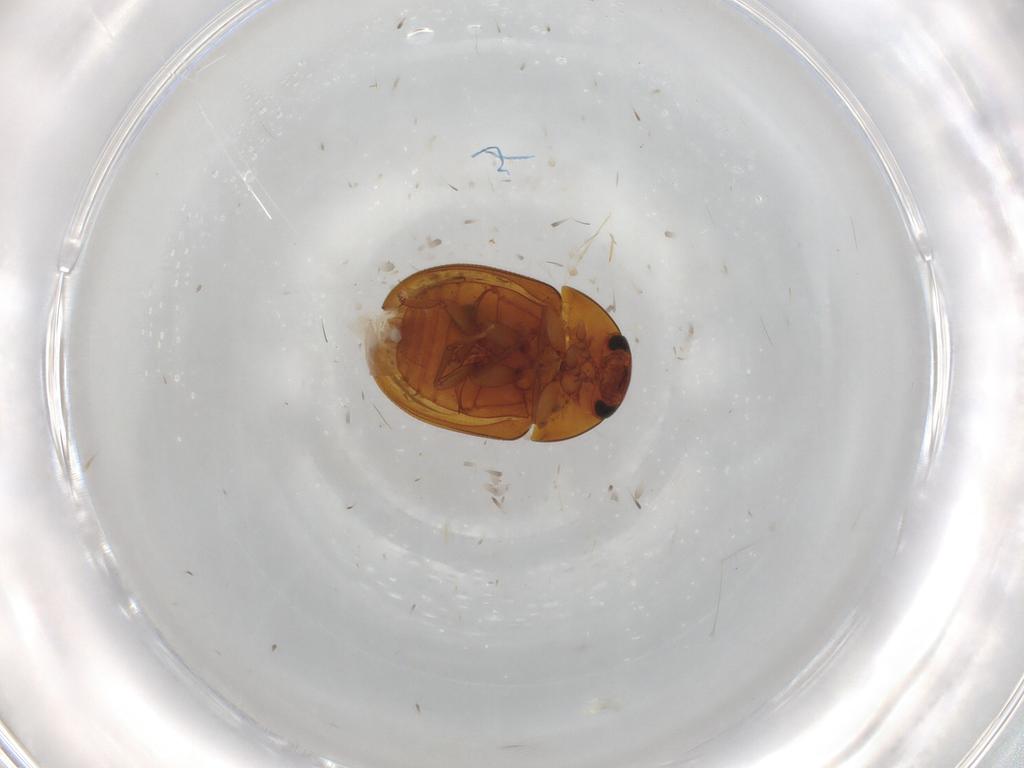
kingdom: Animalia
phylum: Arthropoda
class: Insecta
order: Coleoptera
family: Phalacridae
